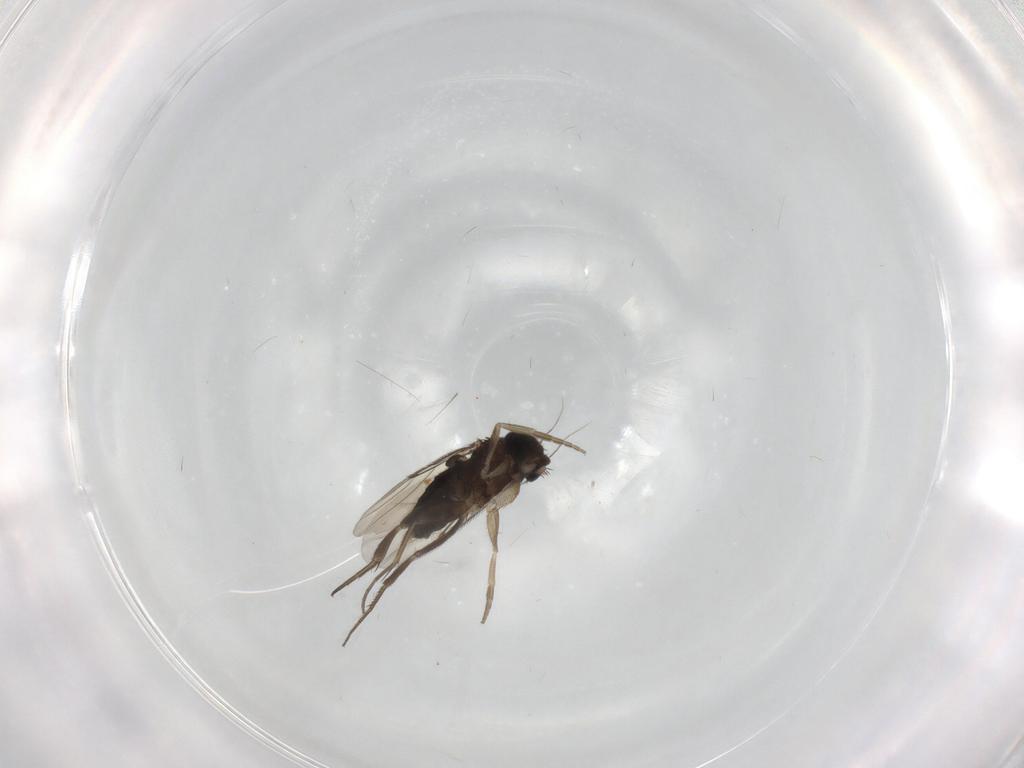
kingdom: Animalia
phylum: Arthropoda
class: Insecta
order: Diptera
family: Phoridae
